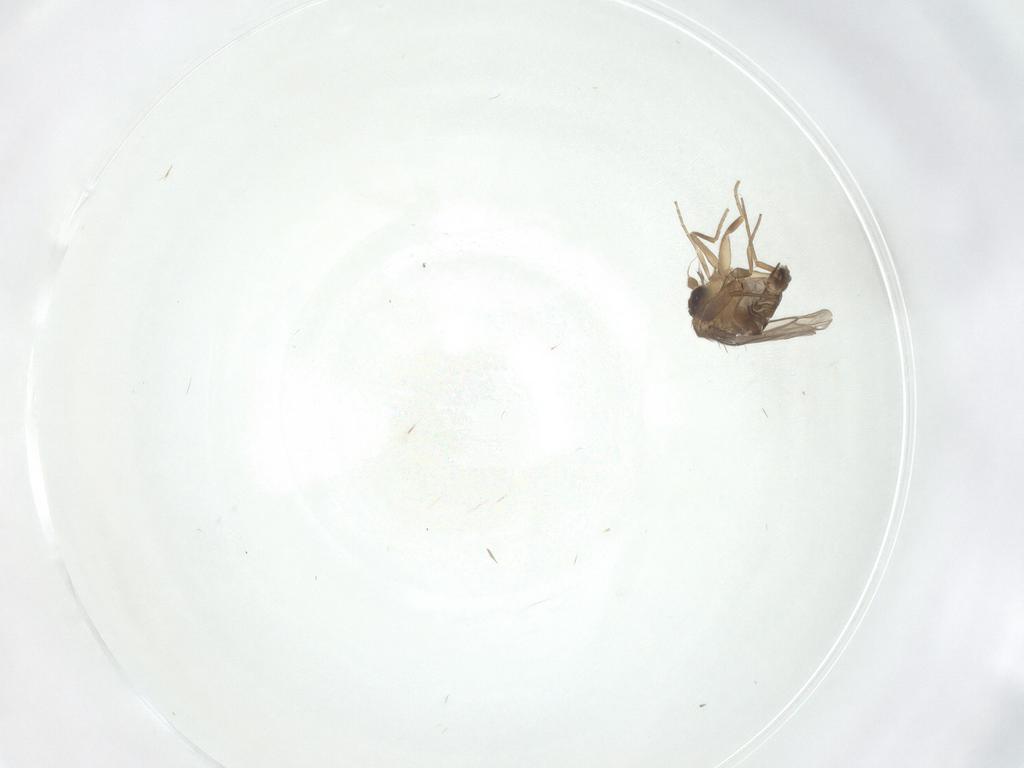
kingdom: Animalia
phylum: Arthropoda
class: Insecta
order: Diptera
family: Phoridae
